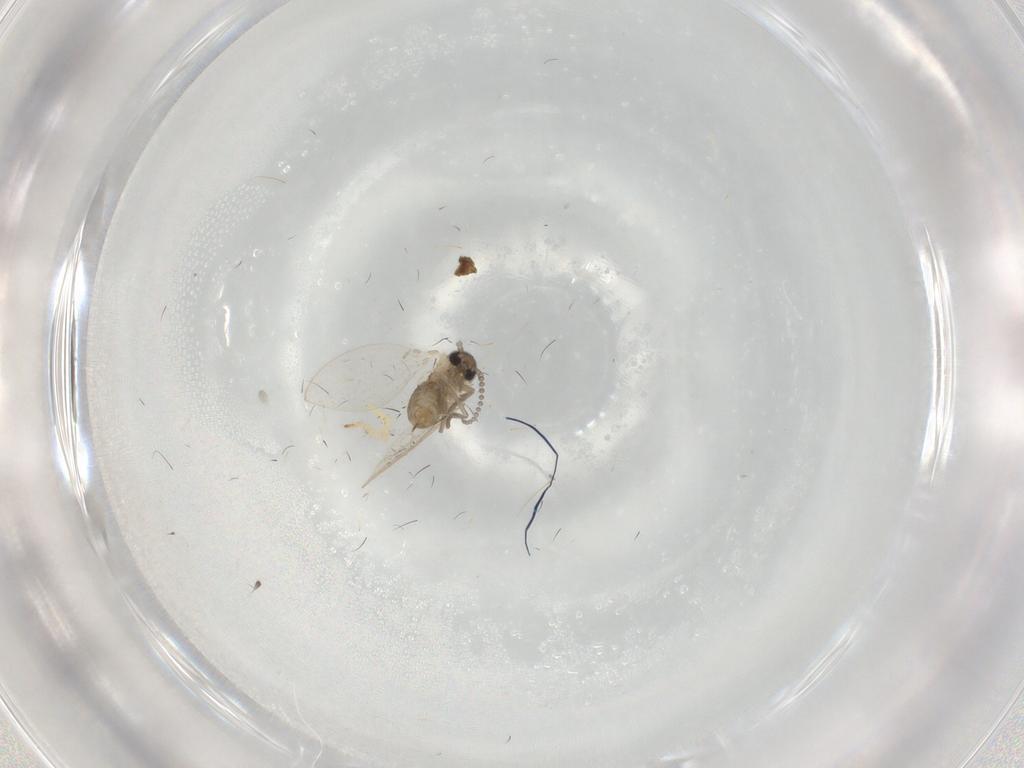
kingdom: Animalia
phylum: Arthropoda
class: Insecta
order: Diptera
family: Psychodidae
